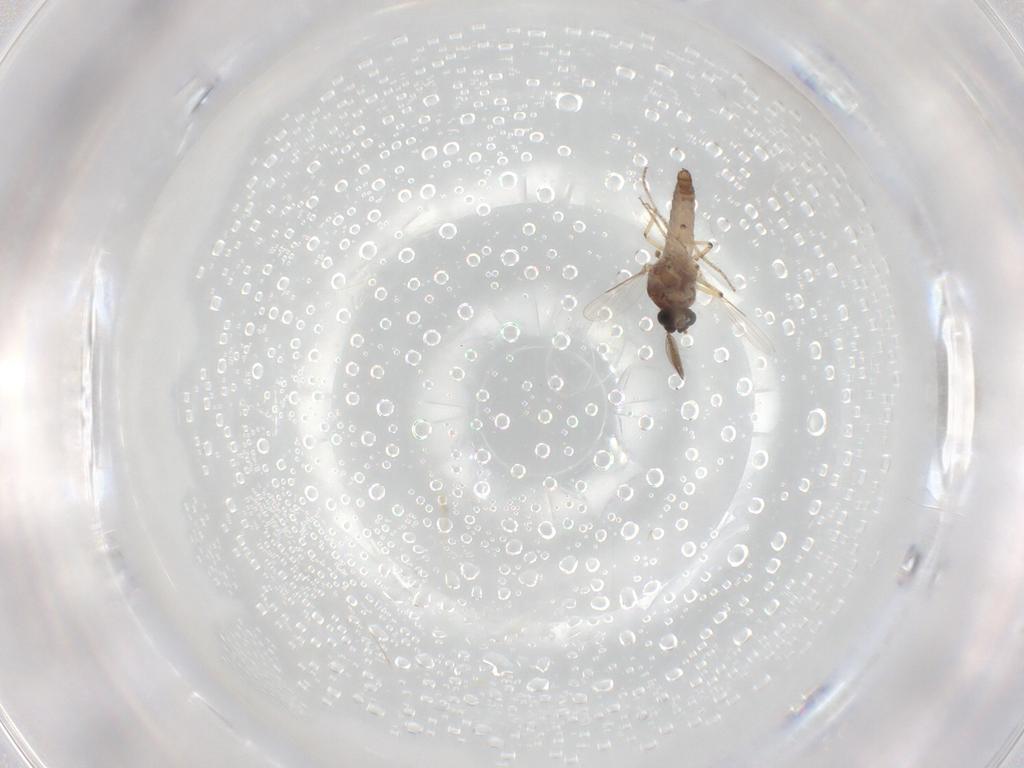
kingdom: Animalia
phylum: Arthropoda
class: Insecta
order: Diptera
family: Ceratopogonidae
